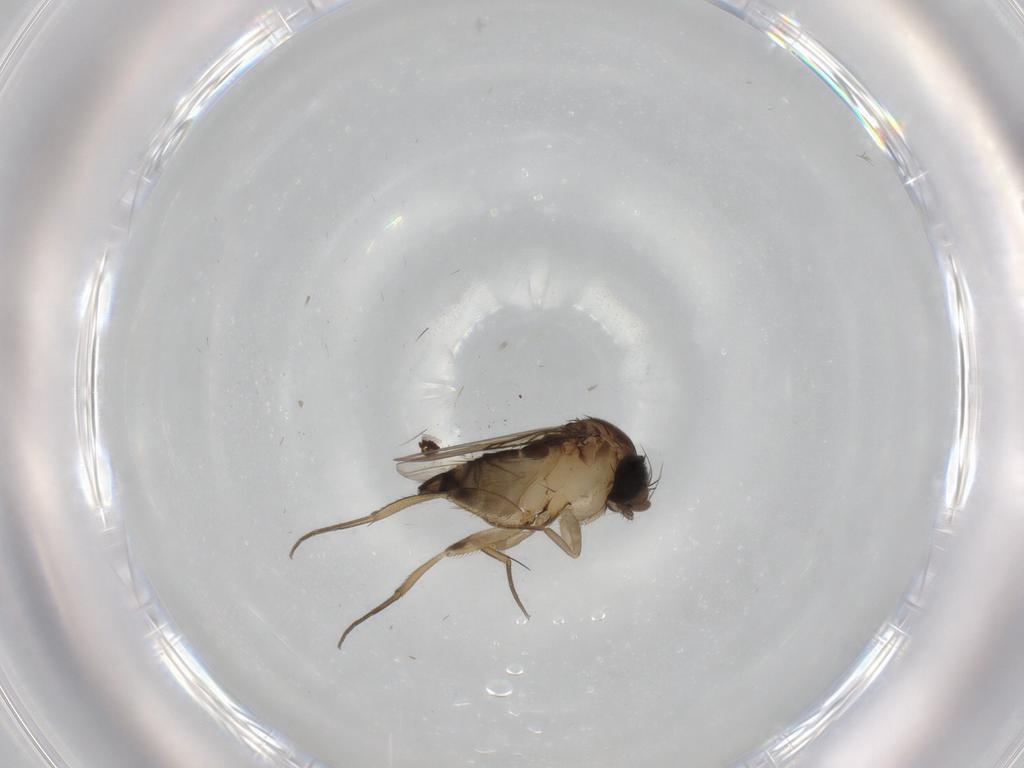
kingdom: Animalia
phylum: Arthropoda
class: Insecta
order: Diptera
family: Phoridae
